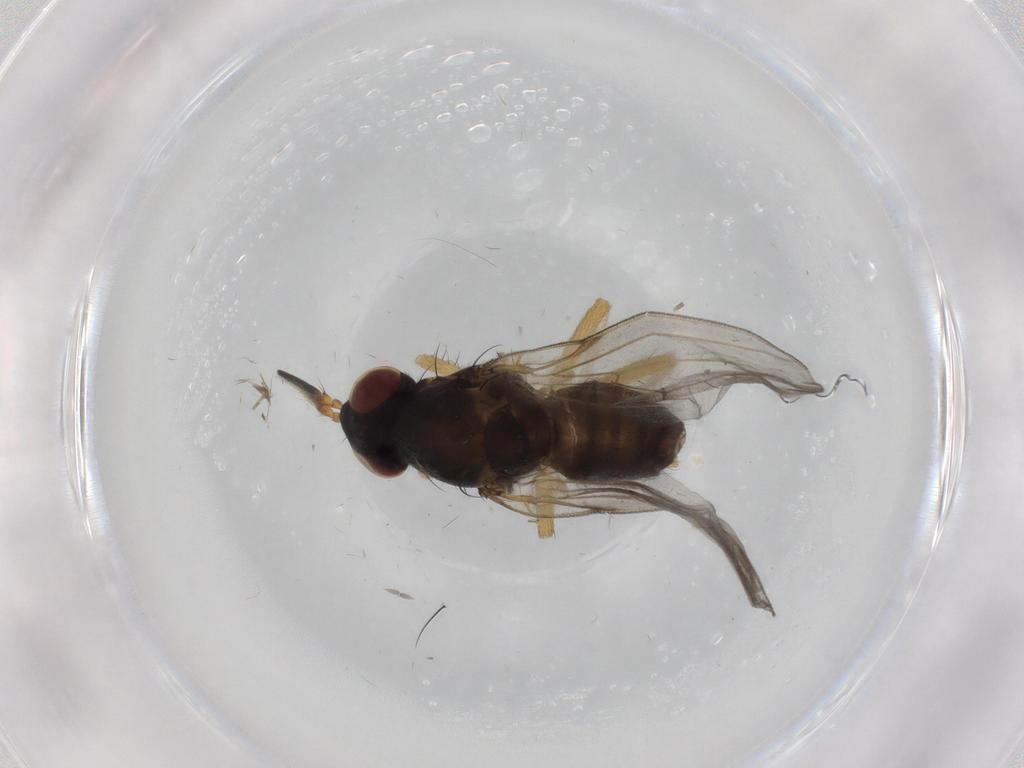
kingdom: Animalia
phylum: Arthropoda
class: Insecta
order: Diptera
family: Lauxaniidae
